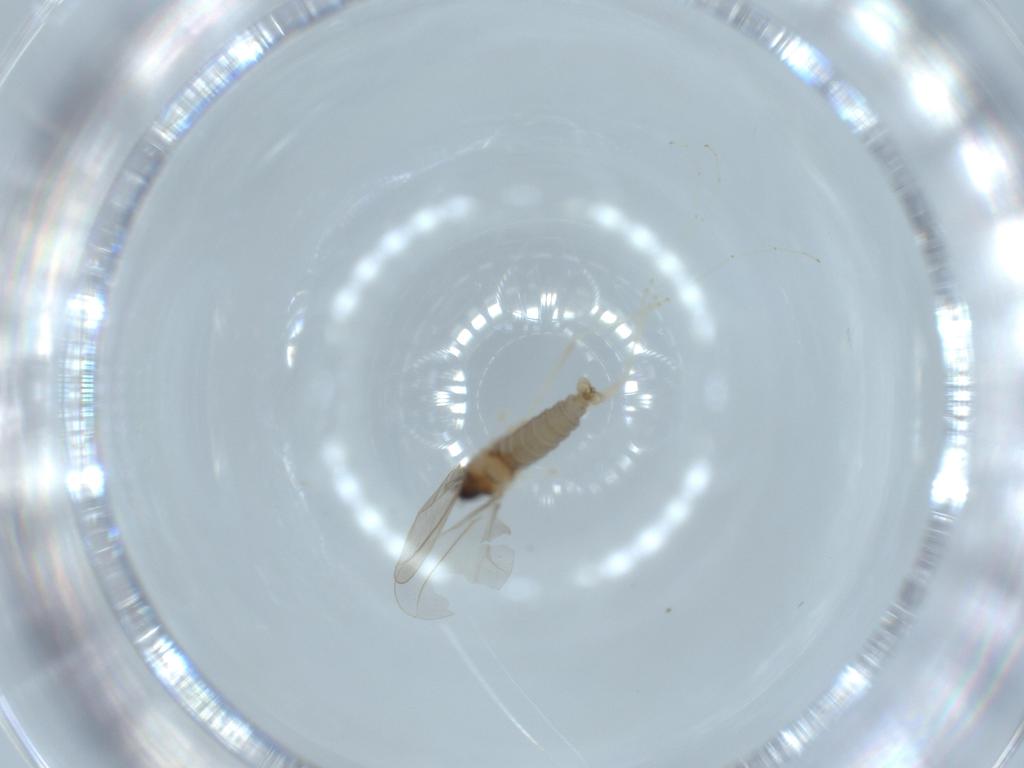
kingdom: Animalia
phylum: Arthropoda
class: Insecta
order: Diptera
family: Cecidomyiidae
